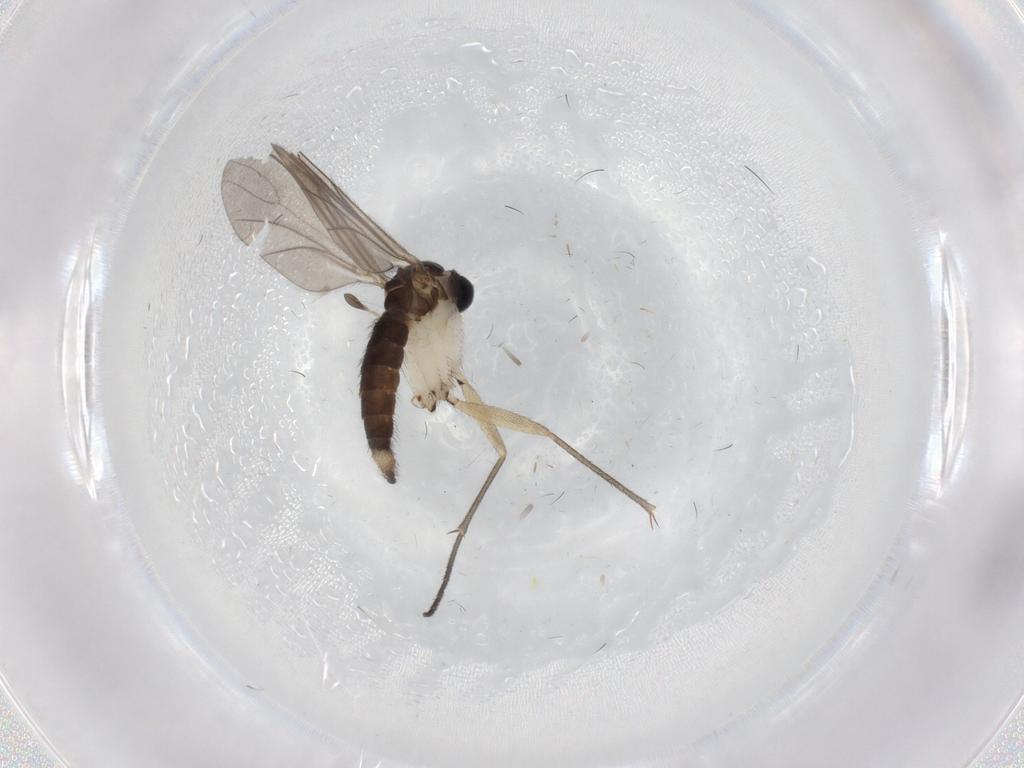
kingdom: Animalia
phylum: Arthropoda
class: Insecta
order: Diptera
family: Sciaridae
